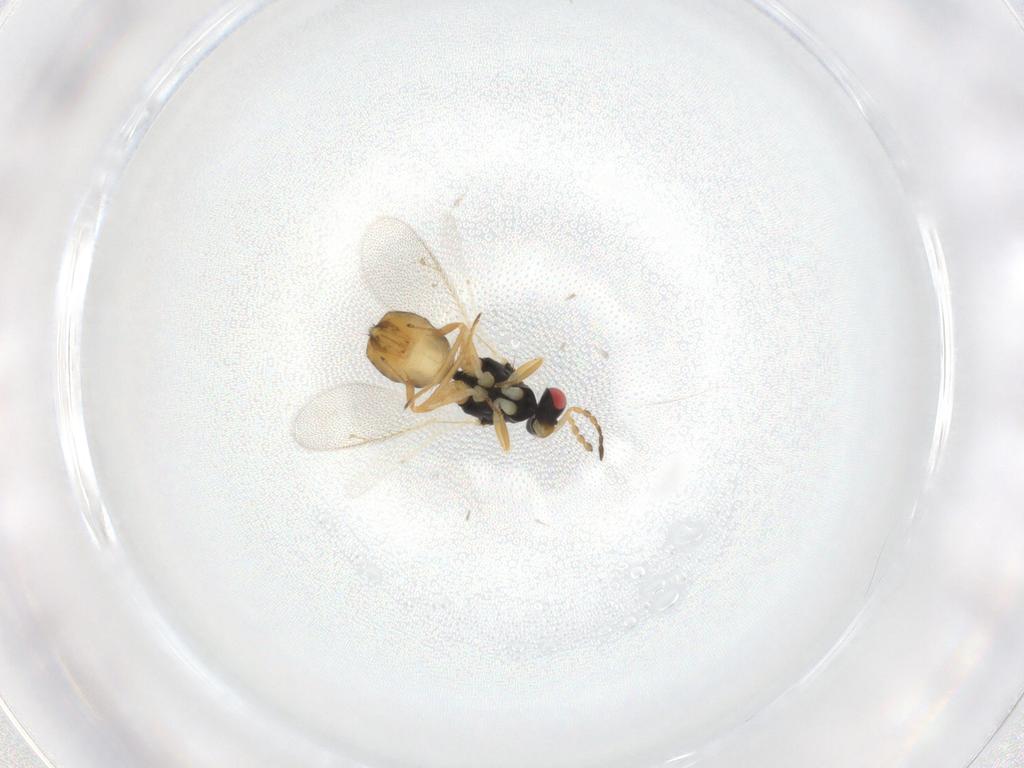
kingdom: Animalia
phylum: Arthropoda
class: Insecta
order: Hymenoptera
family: Eulophidae
